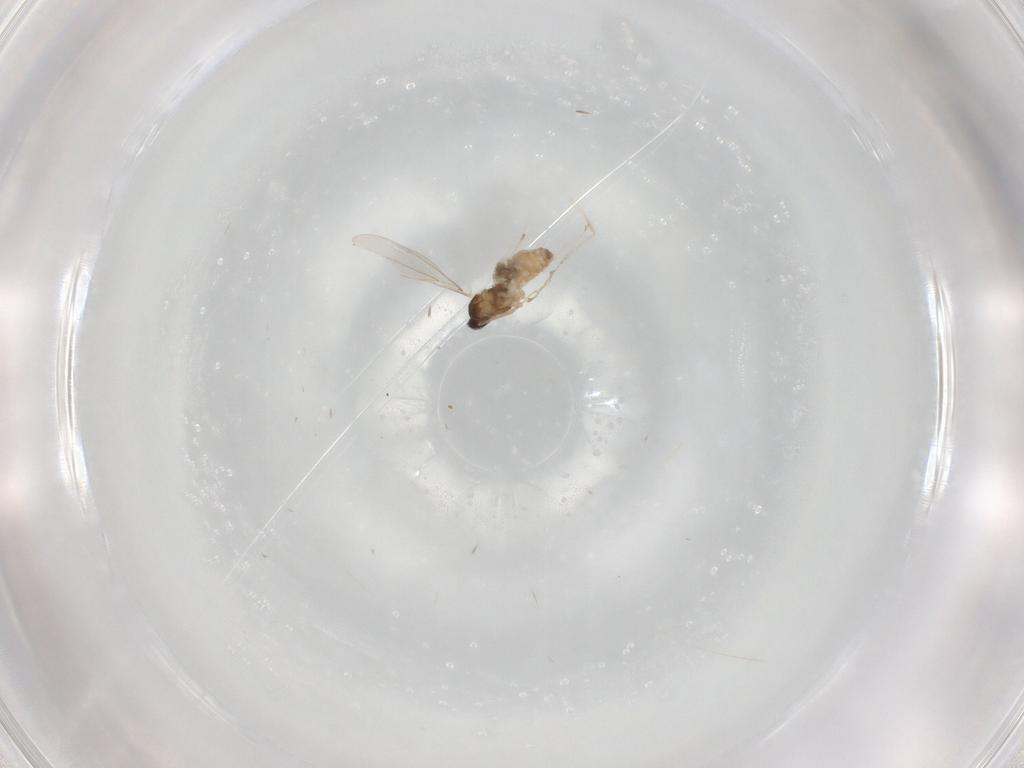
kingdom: Animalia
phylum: Arthropoda
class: Insecta
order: Diptera
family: Cecidomyiidae
